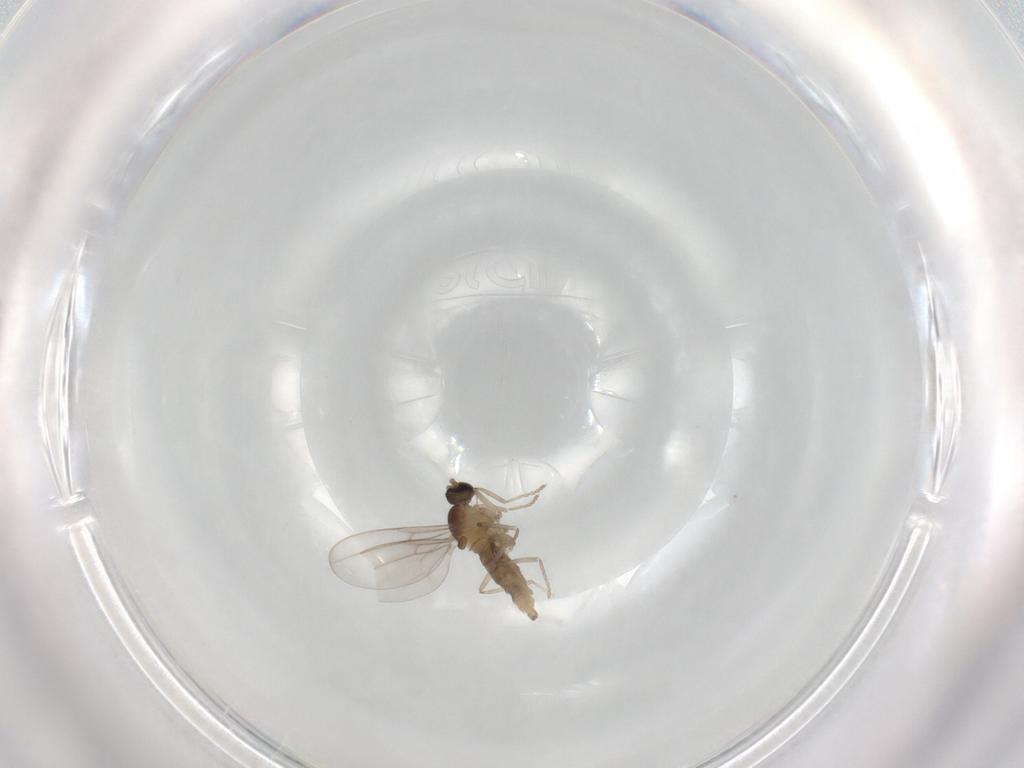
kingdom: Animalia
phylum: Arthropoda
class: Insecta
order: Diptera
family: Cecidomyiidae
